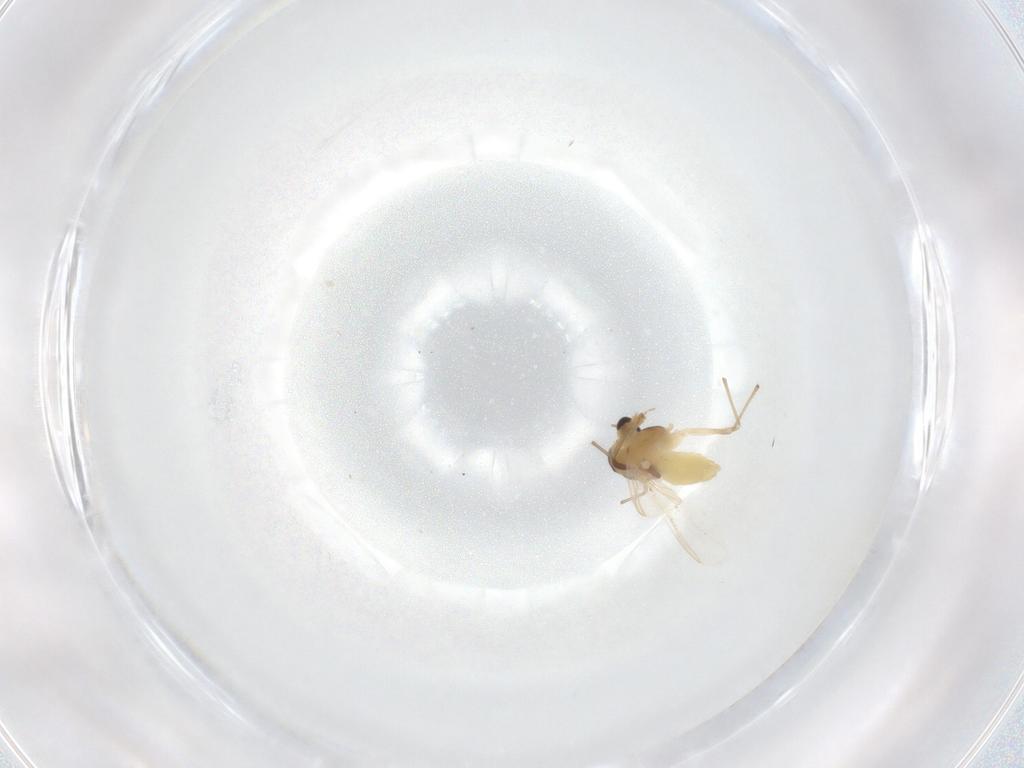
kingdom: Animalia
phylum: Arthropoda
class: Insecta
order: Diptera
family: Chironomidae
